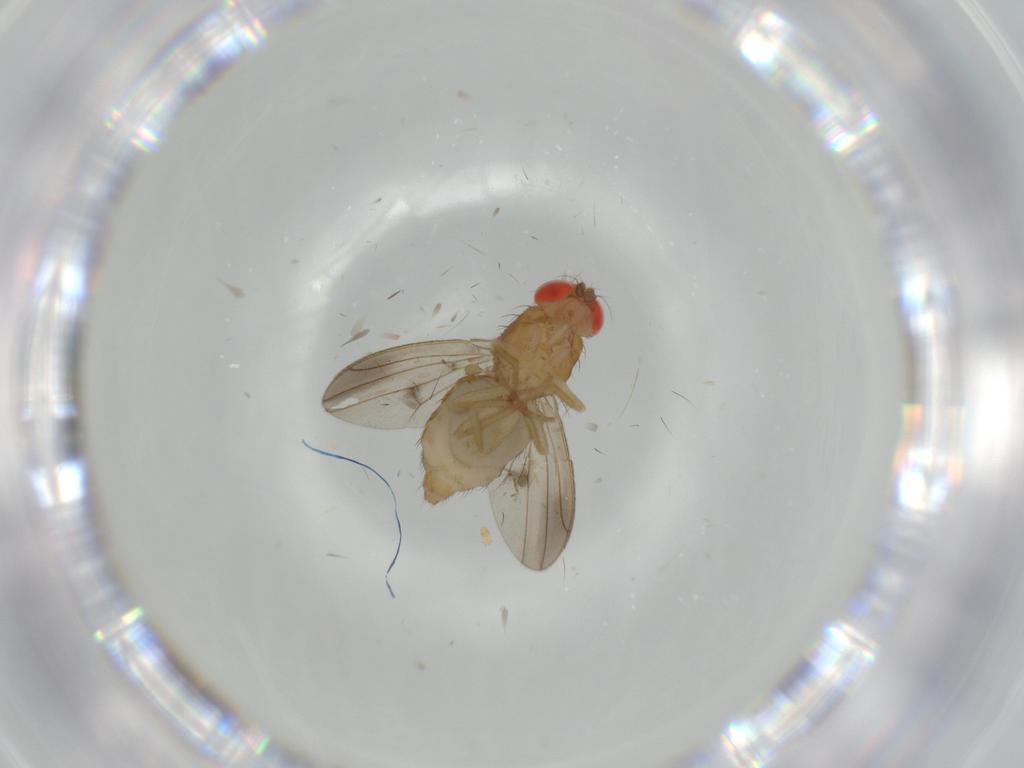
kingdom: Animalia
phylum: Arthropoda
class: Insecta
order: Diptera
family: Drosophilidae
